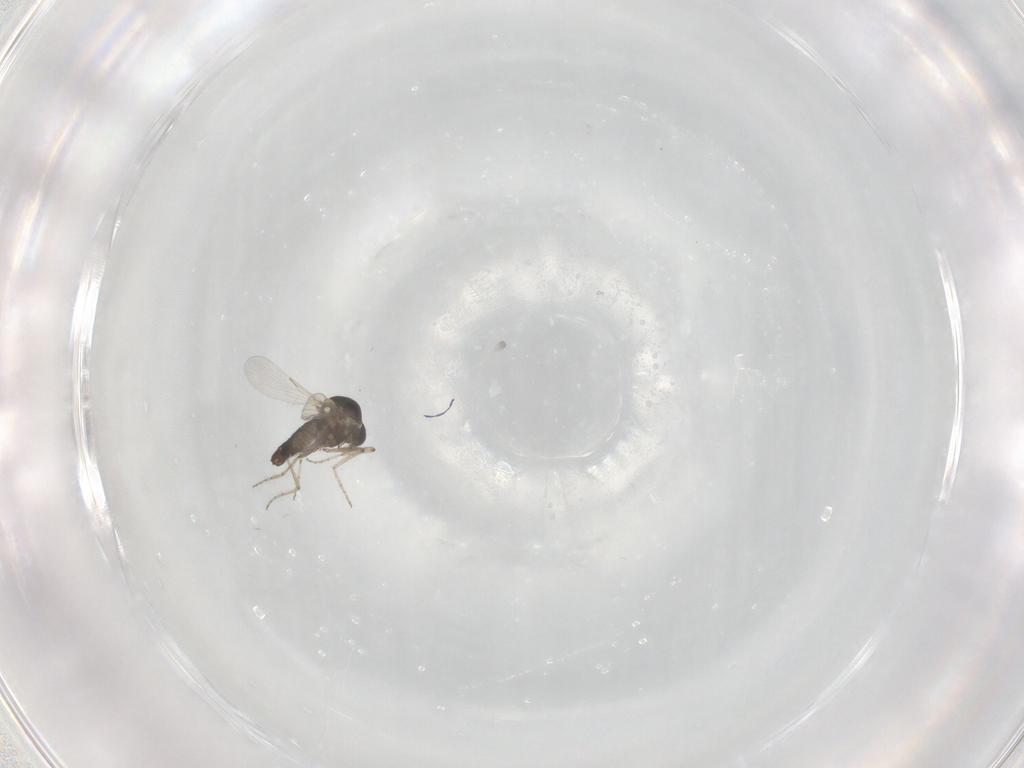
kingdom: Animalia
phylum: Arthropoda
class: Insecta
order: Diptera
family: Ceratopogonidae
